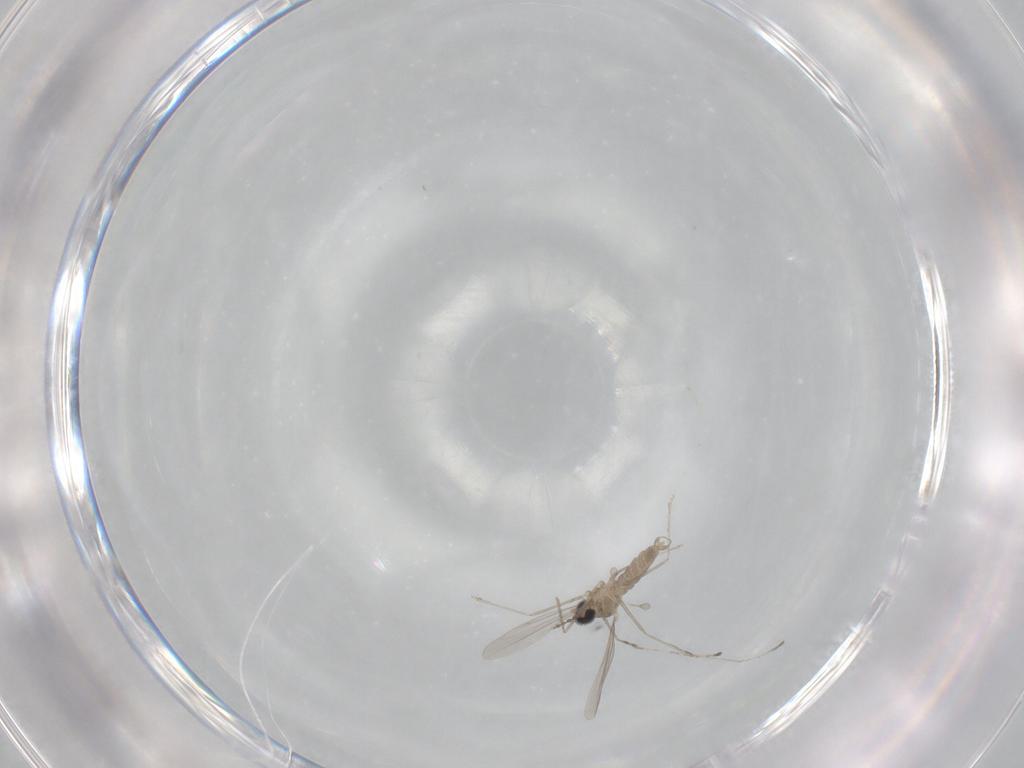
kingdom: Animalia
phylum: Arthropoda
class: Insecta
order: Diptera
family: Cecidomyiidae
